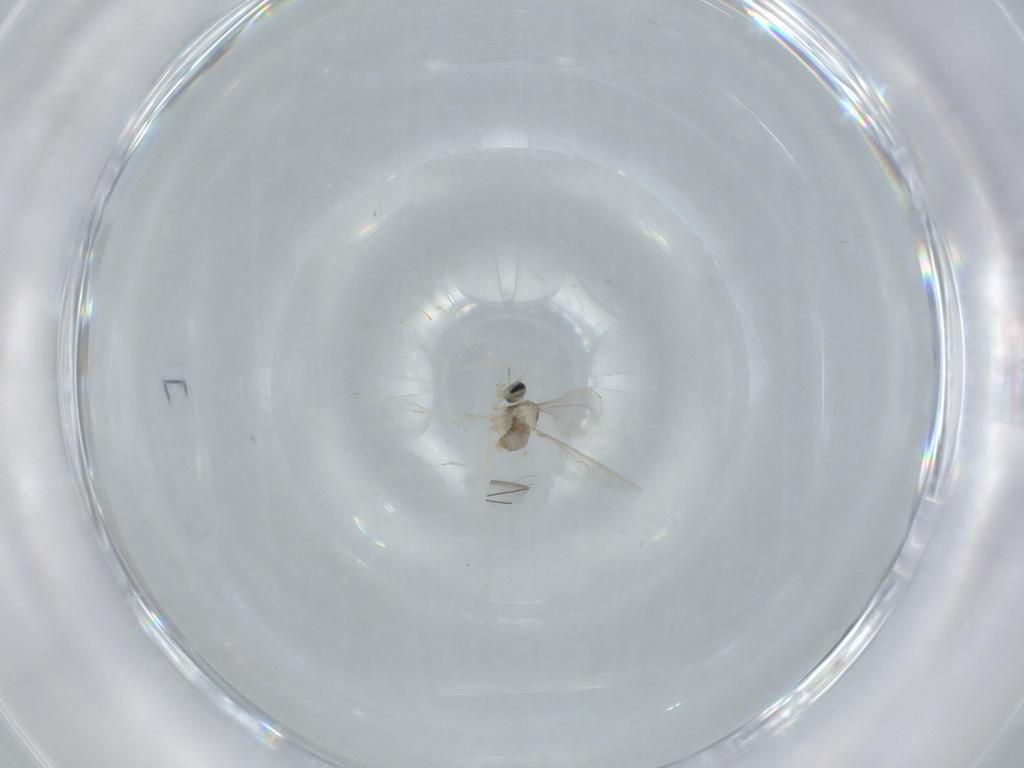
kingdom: Animalia
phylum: Arthropoda
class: Insecta
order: Diptera
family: Cecidomyiidae
